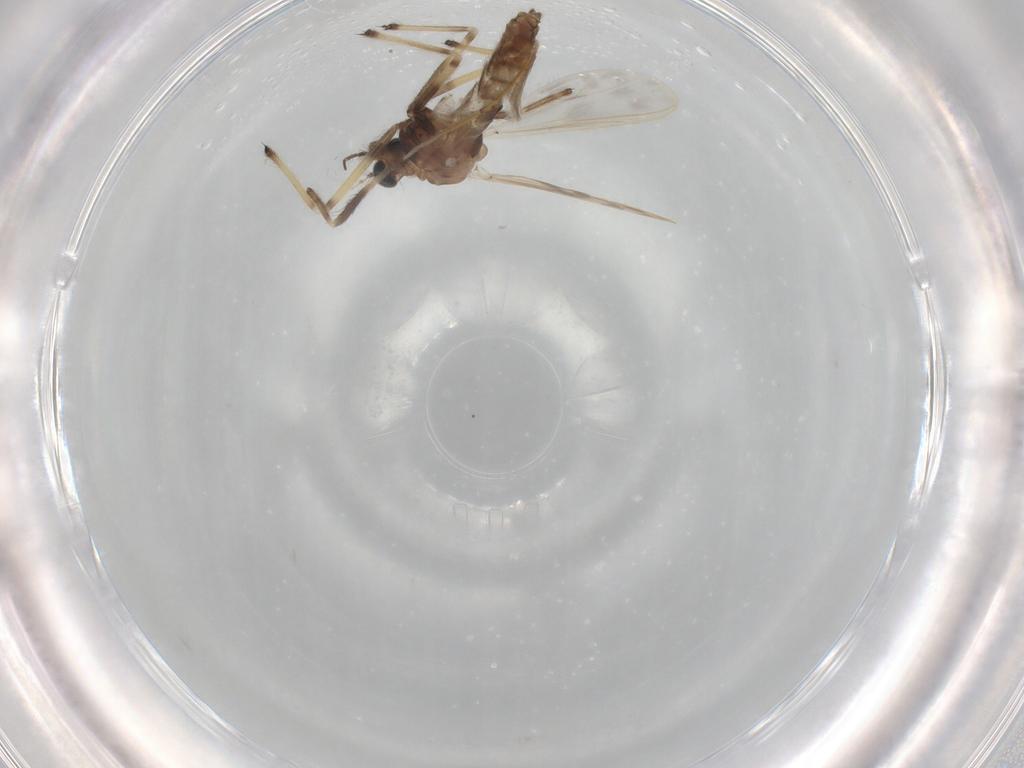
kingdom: Animalia
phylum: Arthropoda
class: Insecta
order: Diptera
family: Chironomidae
